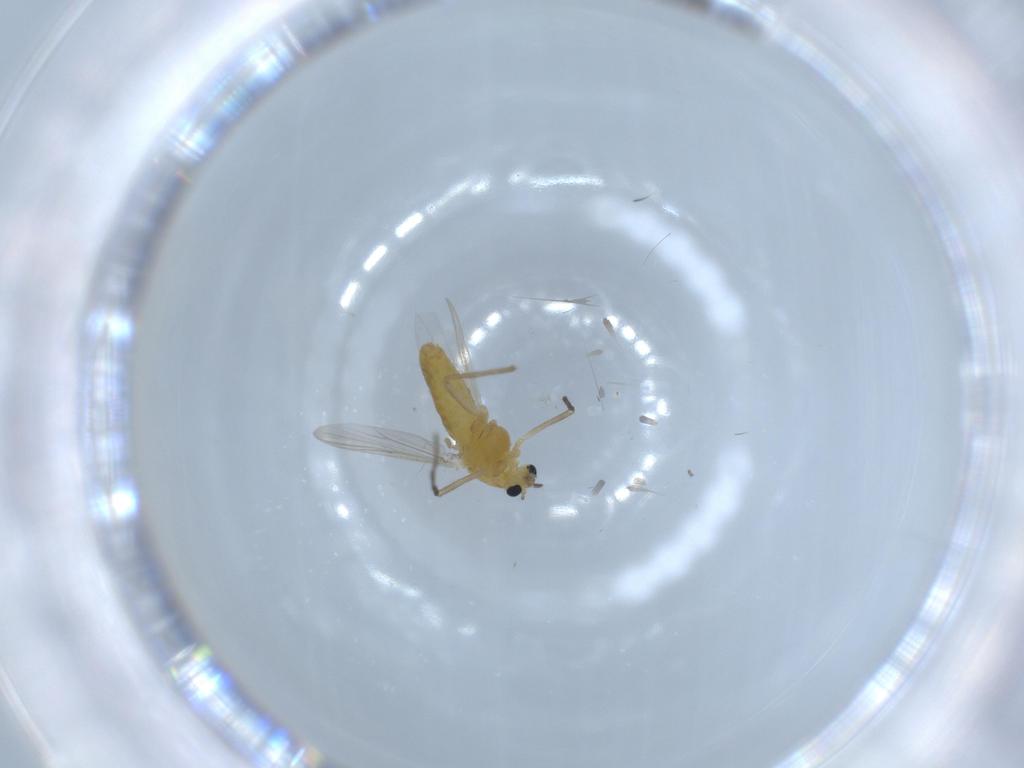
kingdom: Animalia
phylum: Arthropoda
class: Insecta
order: Diptera
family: Chironomidae
